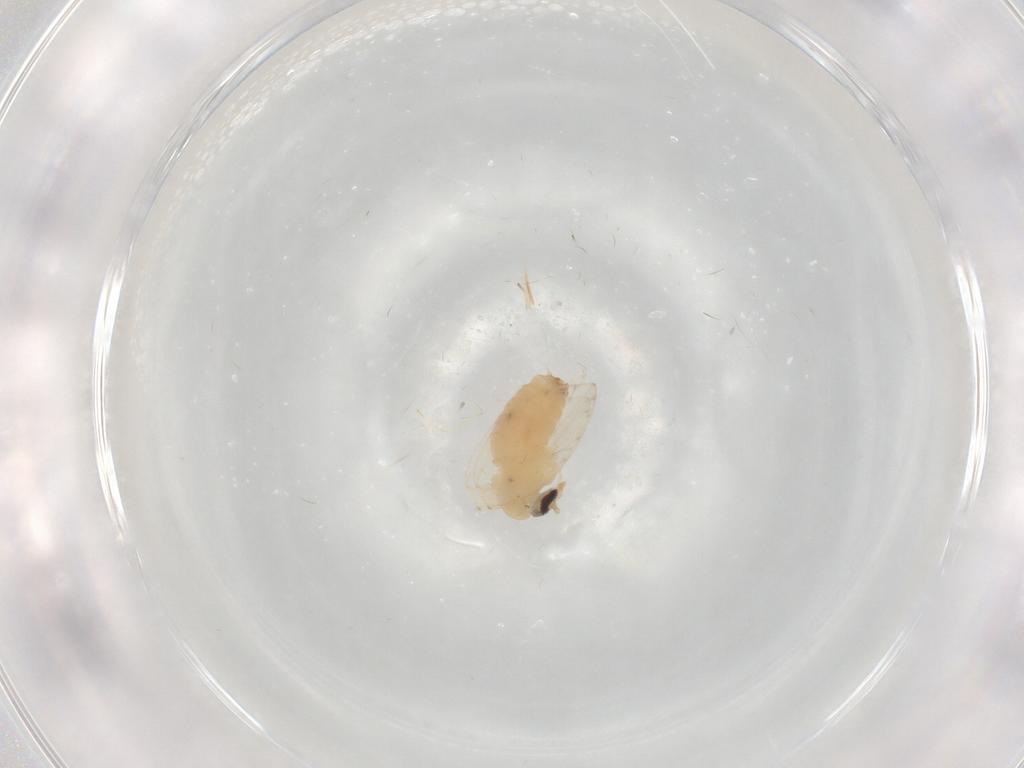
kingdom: Animalia
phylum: Arthropoda
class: Insecta
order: Diptera
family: Psychodidae
